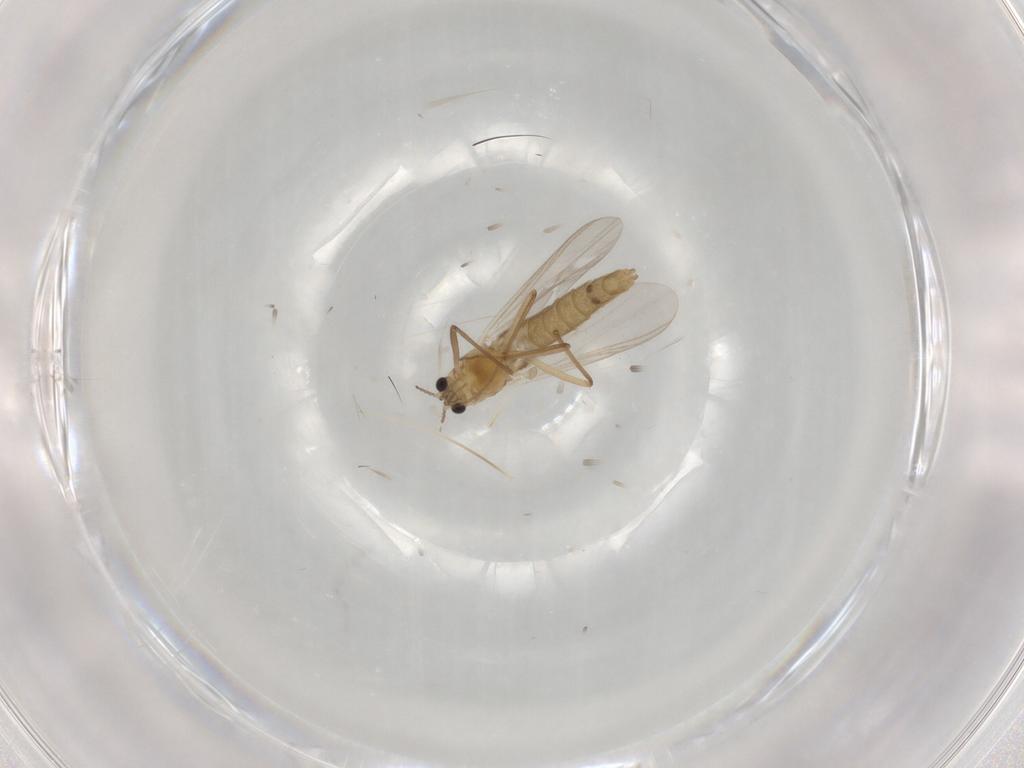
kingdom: Animalia
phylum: Arthropoda
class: Insecta
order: Diptera
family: Chironomidae
